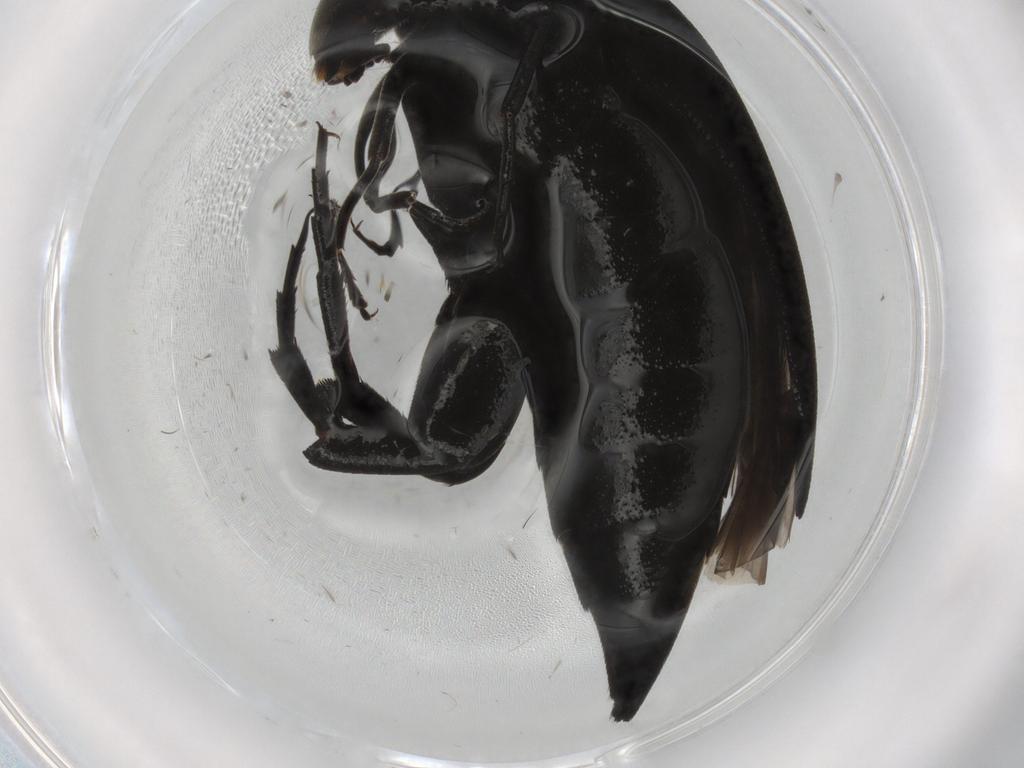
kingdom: Animalia
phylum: Arthropoda
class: Insecta
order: Coleoptera
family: Mordellidae
